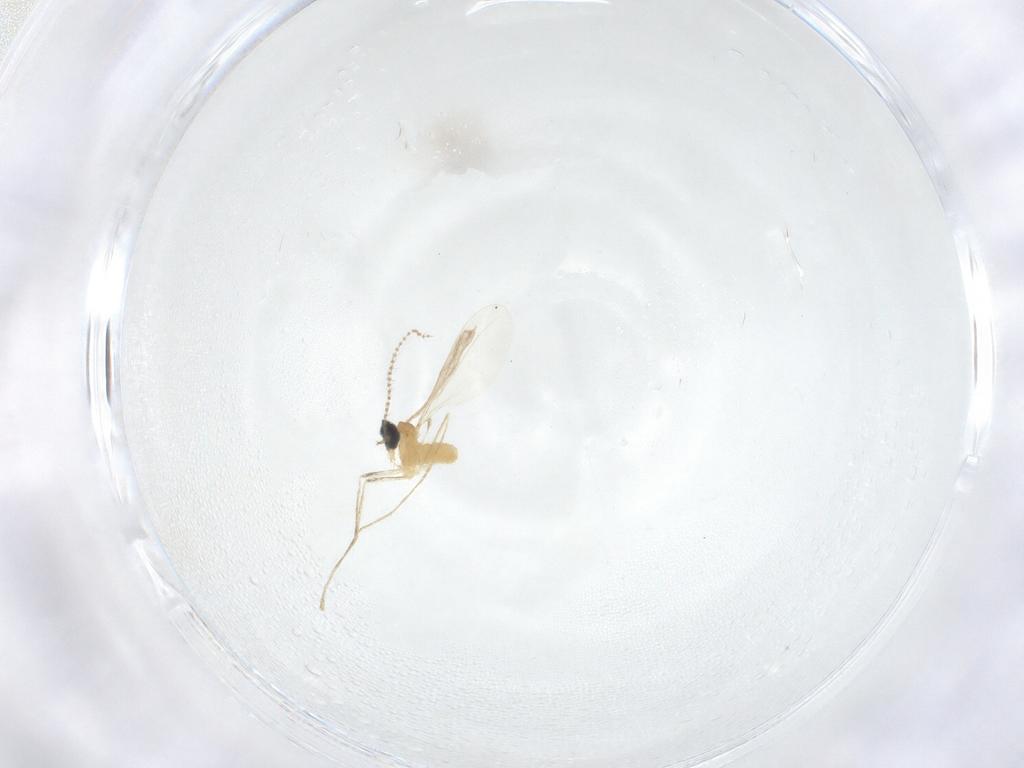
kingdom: Animalia
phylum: Arthropoda
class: Insecta
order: Diptera
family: Cecidomyiidae
